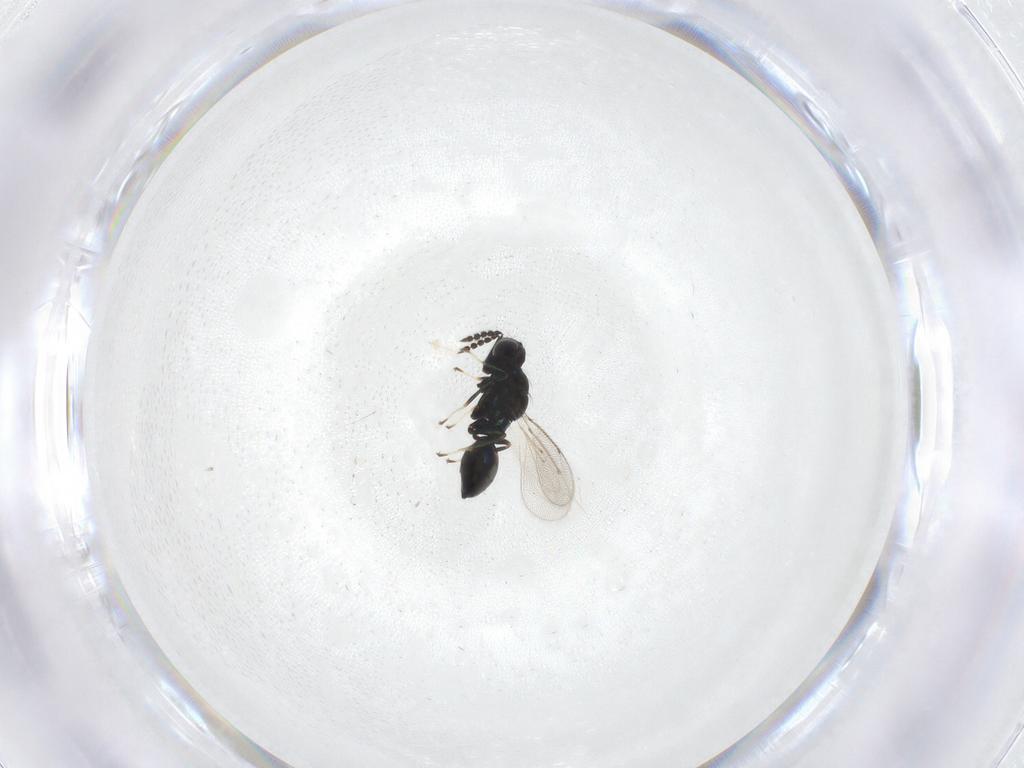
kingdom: Animalia
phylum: Arthropoda
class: Insecta
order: Hymenoptera
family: Eulophidae
